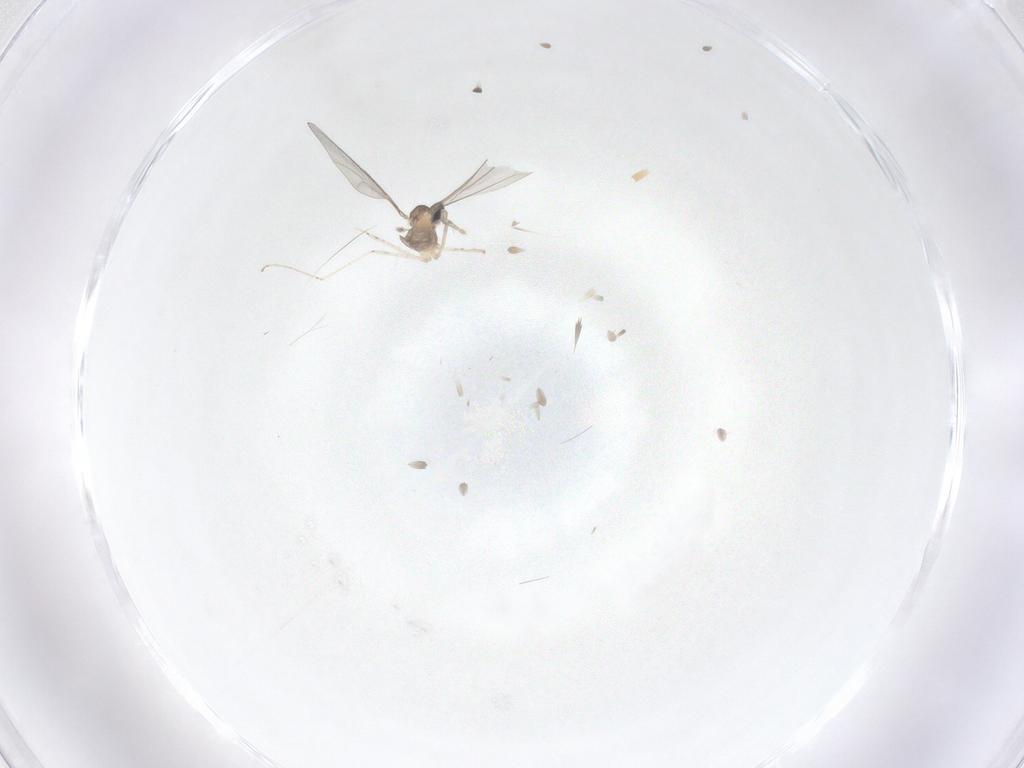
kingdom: Animalia
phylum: Arthropoda
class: Insecta
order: Diptera
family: Cecidomyiidae
